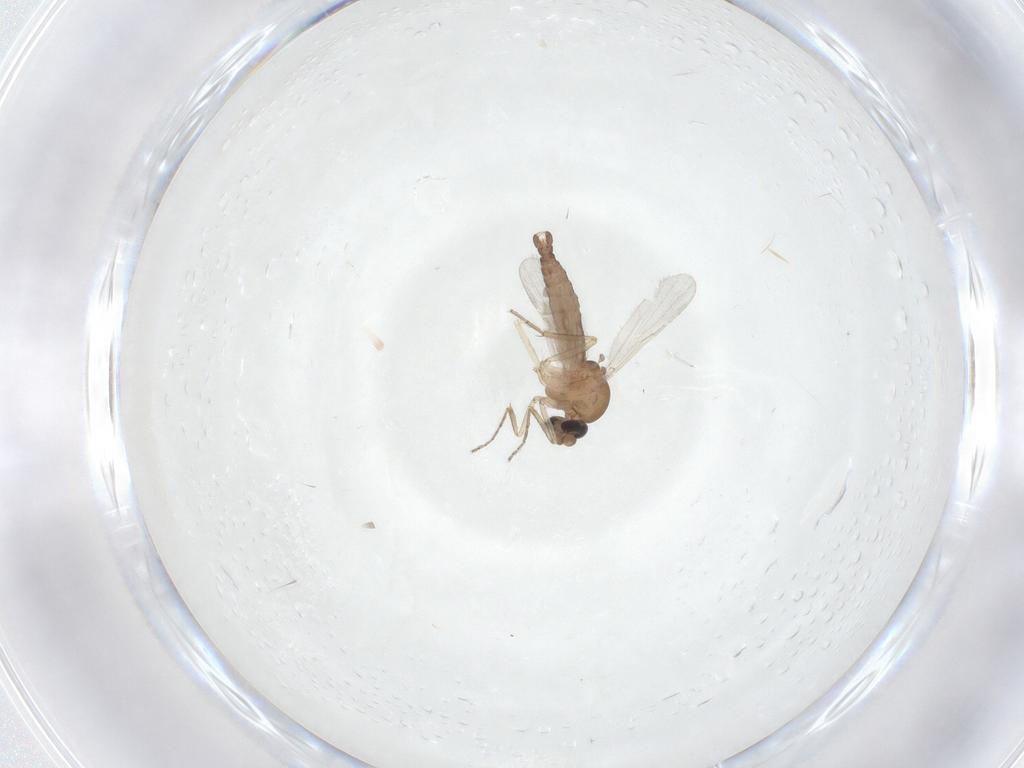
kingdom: Animalia
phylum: Arthropoda
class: Insecta
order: Diptera
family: Ceratopogonidae
